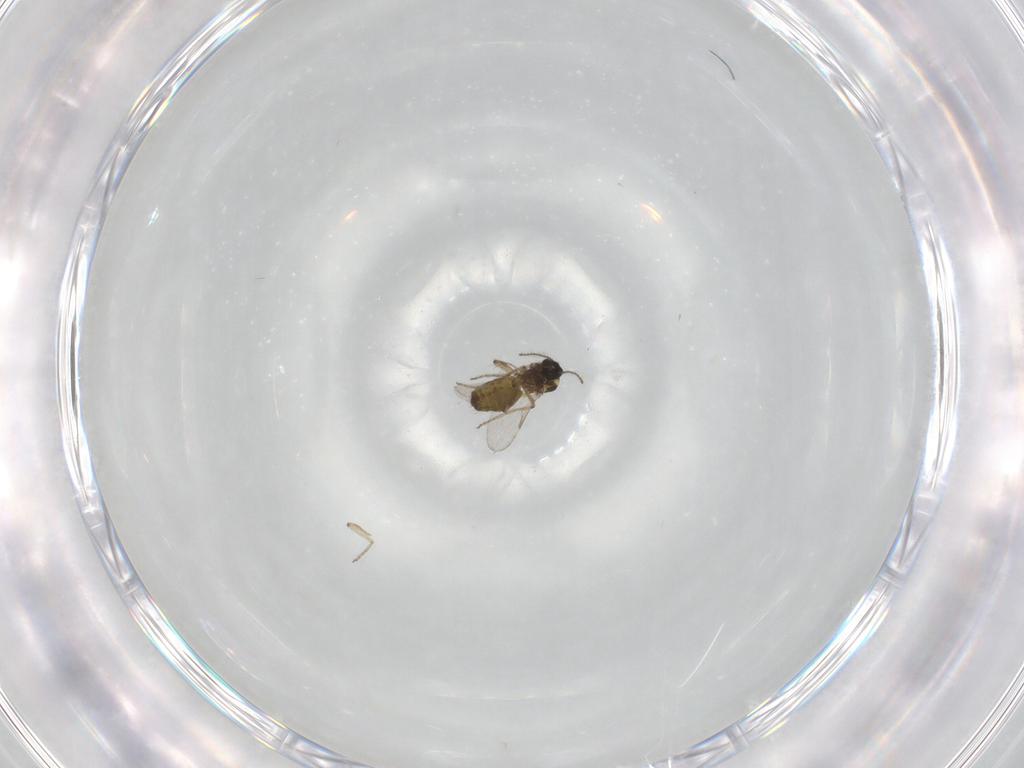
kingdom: Animalia
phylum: Arthropoda
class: Insecta
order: Diptera
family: Ceratopogonidae
